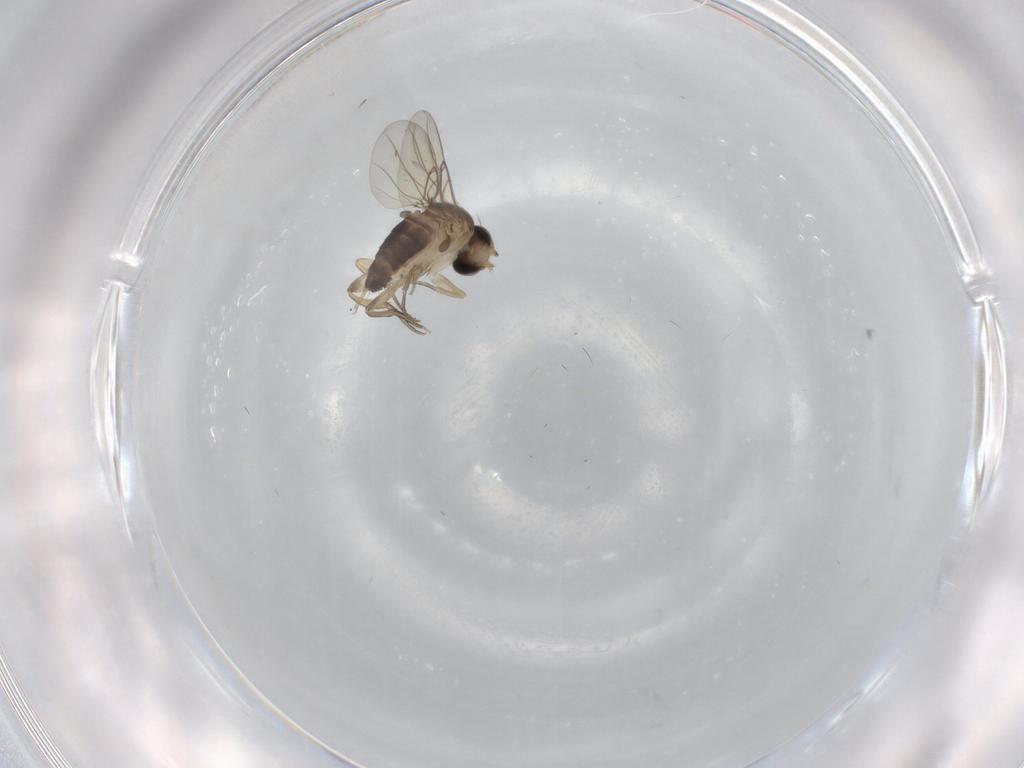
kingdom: Animalia
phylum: Arthropoda
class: Insecta
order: Diptera
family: Phoridae
